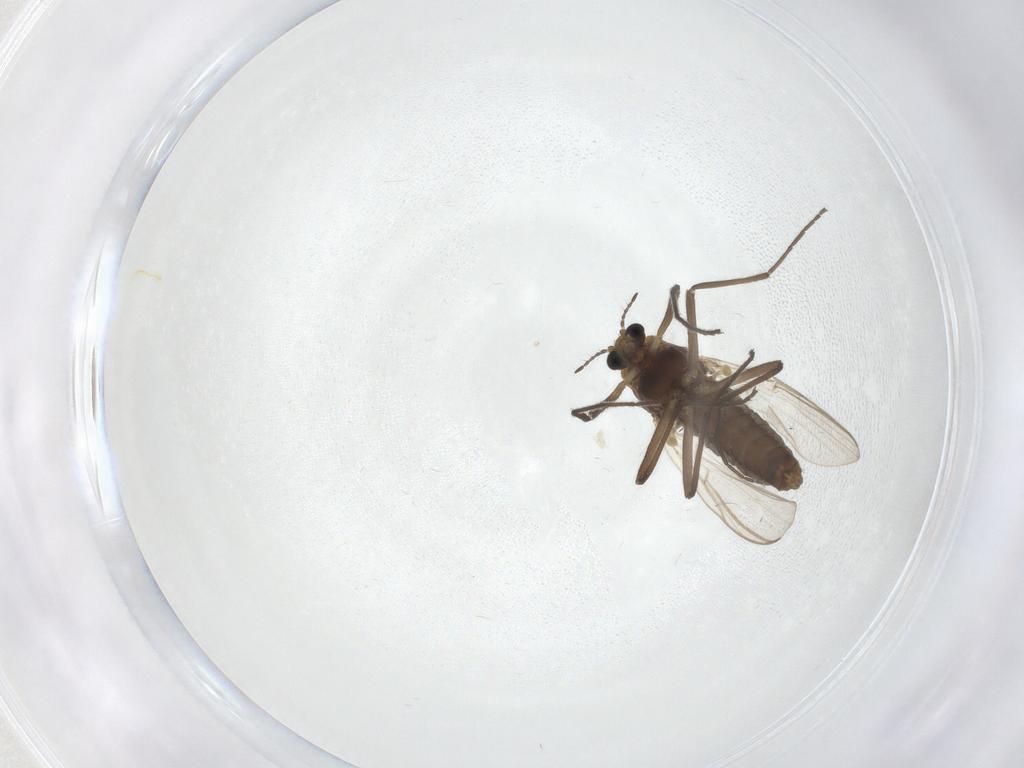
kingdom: Animalia
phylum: Arthropoda
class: Insecta
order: Diptera
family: Chironomidae
